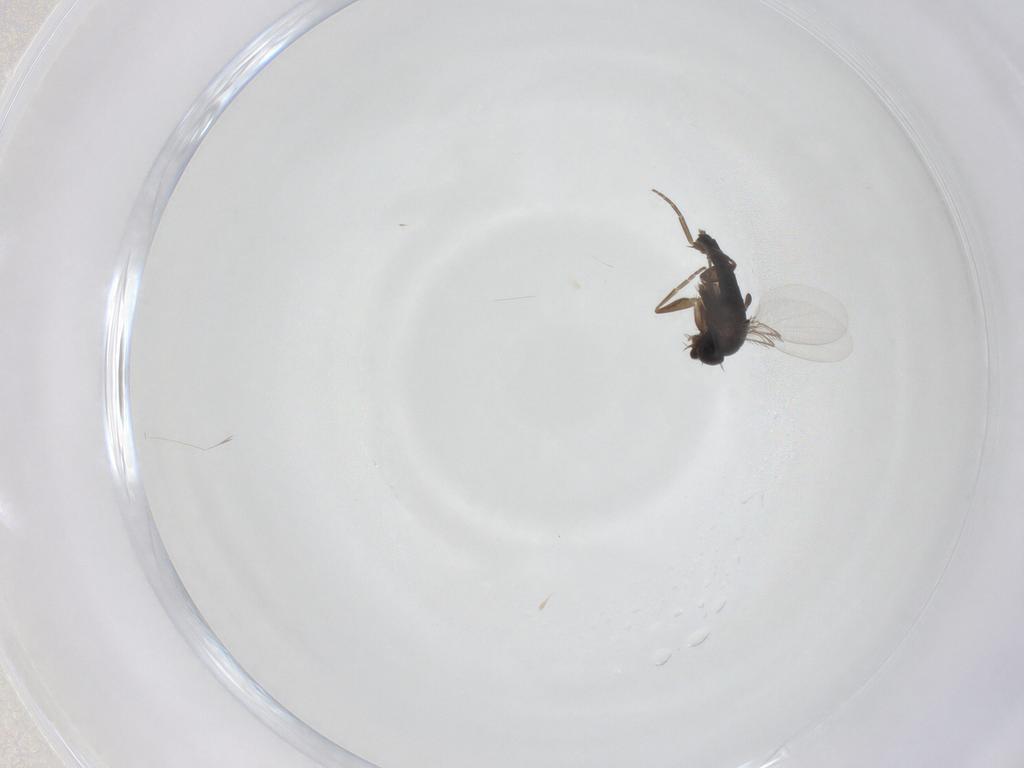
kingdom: Animalia
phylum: Arthropoda
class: Insecta
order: Diptera
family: Phoridae
